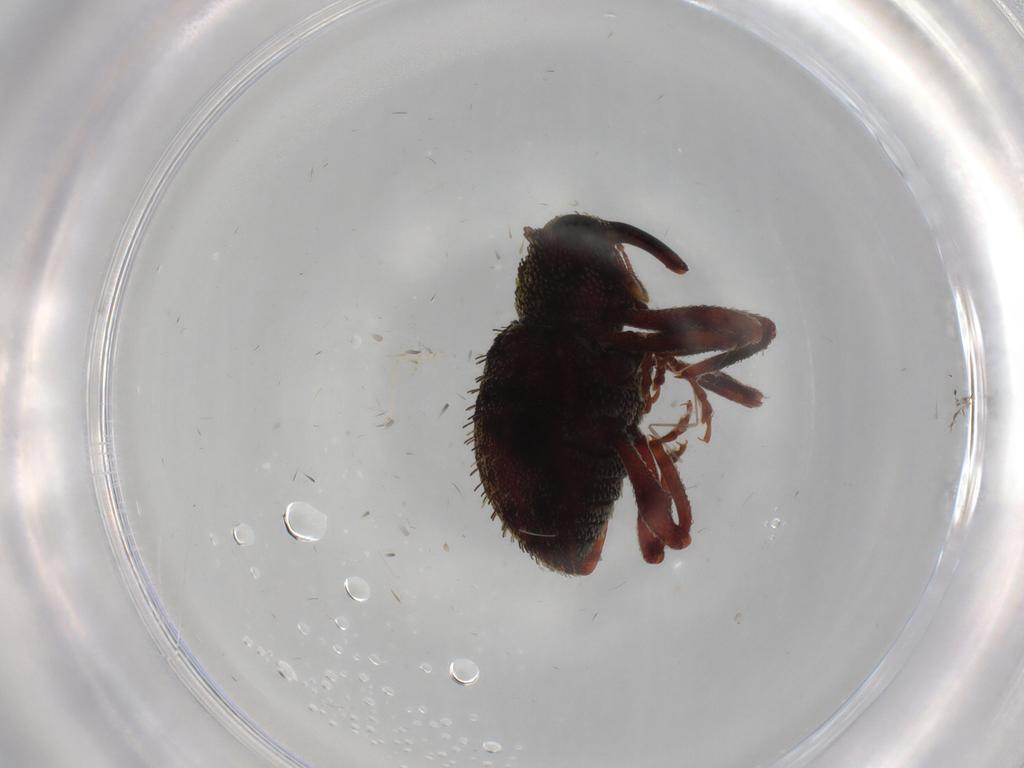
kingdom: Animalia
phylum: Arthropoda
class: Insecta
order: Coleoptera
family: Curculionidae
